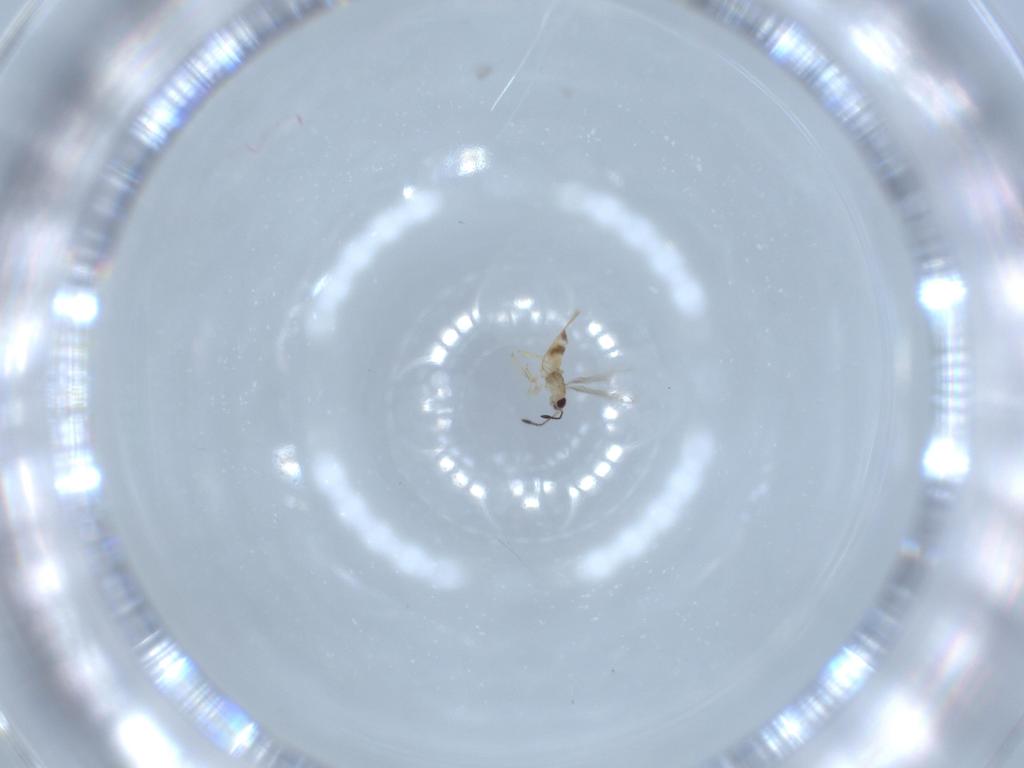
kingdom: Animalia
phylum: Arthropoda
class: Insecta
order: Hymenoptera
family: Mymaridae
